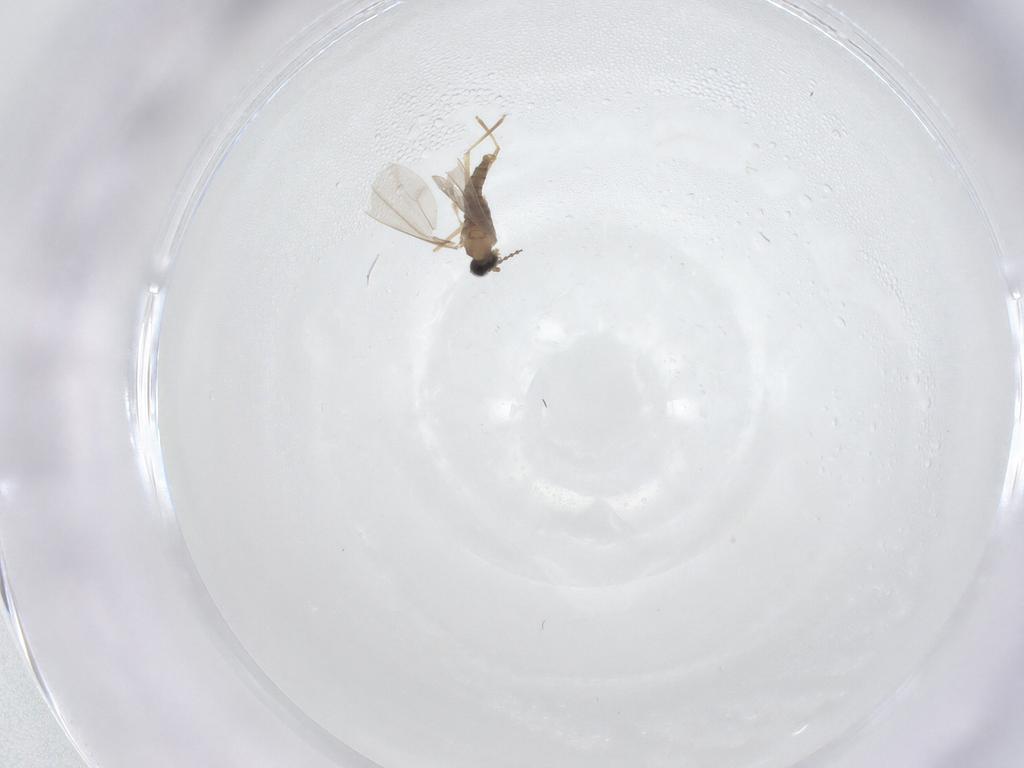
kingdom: Animalia
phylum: Arthropoda
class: Insecta
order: Diptera
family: Cecidomyiidae
